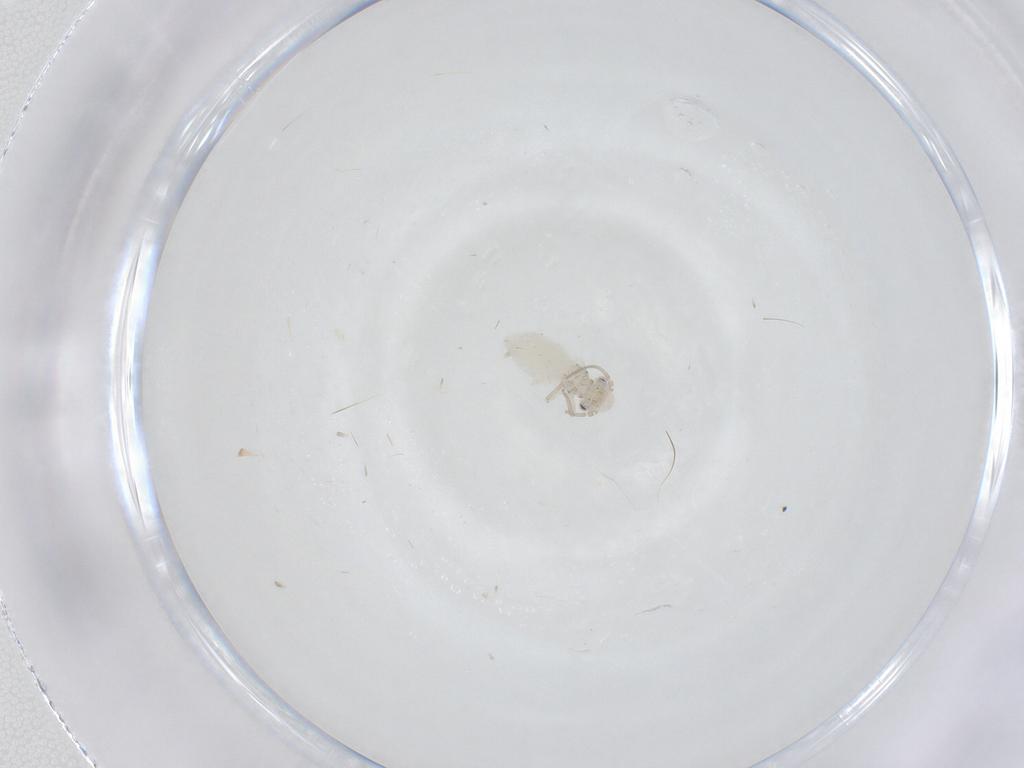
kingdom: Animalia
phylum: Arthropoda
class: Insecta
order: Psocodea
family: Caeciliusidae
